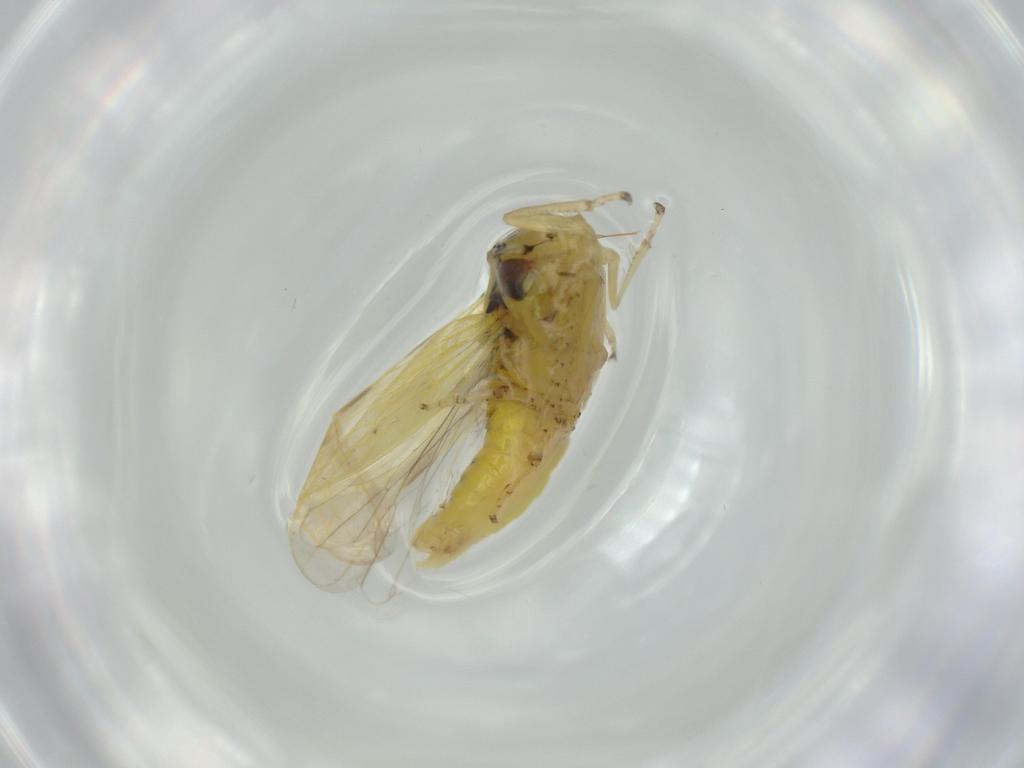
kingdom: Animalia
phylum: Arthropoda
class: Insecta
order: Hemiptera
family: Cicadellidae
